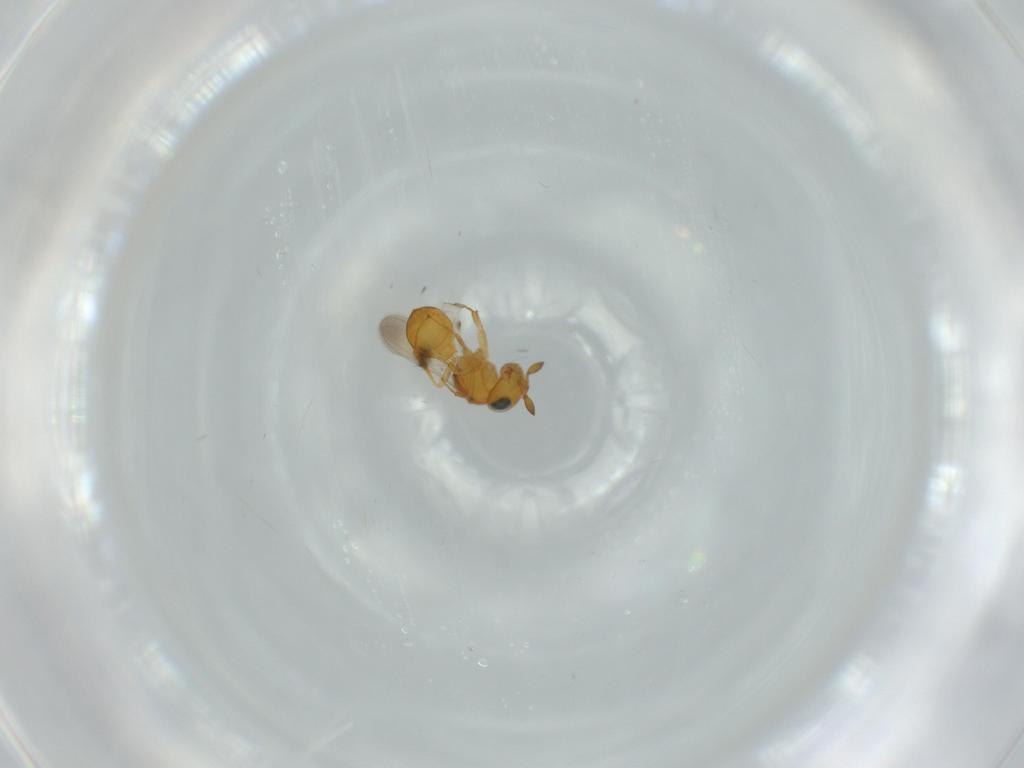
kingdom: Animalia
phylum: Arthropoda
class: Insecta
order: Hymenoptera
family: Scelionidae
